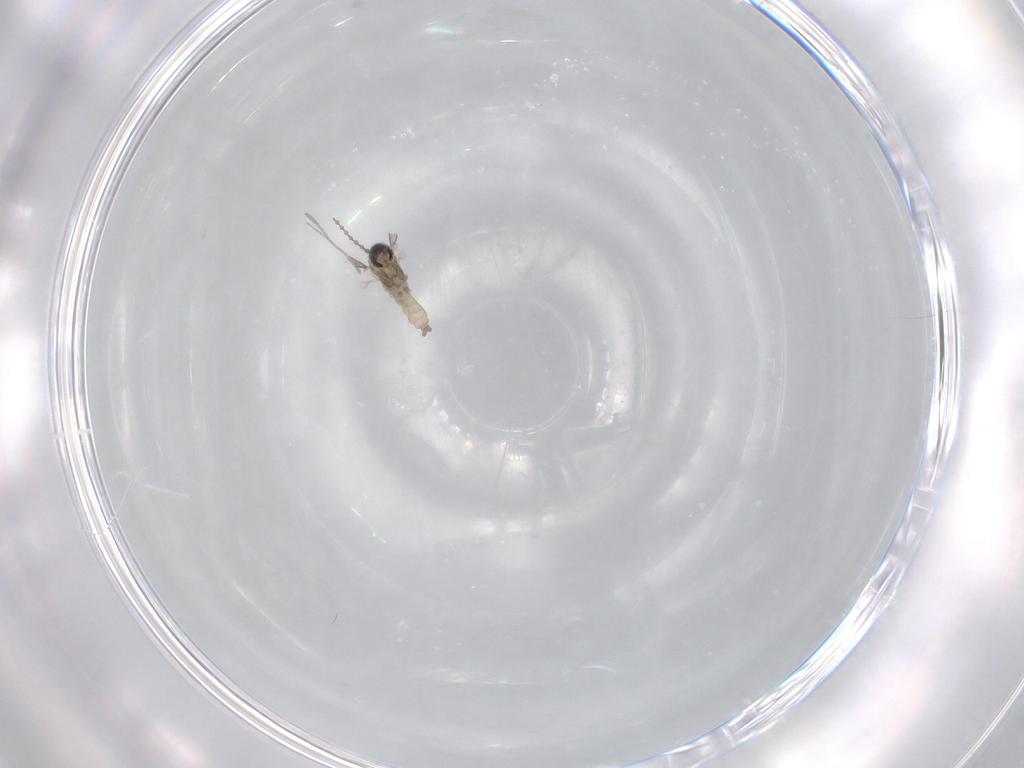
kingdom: Animalia
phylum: Arthropoda
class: Insecta
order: Diptera
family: Cecidomyiidae
